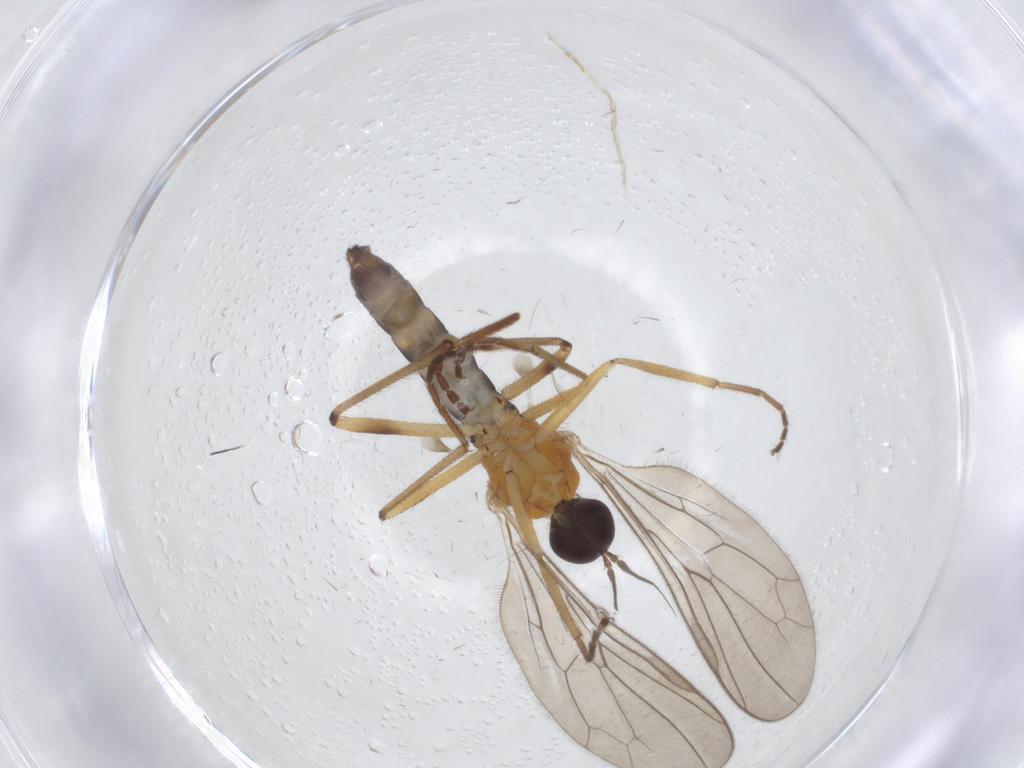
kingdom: Animalia
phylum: Arthropoda
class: Insecta
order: Diptera
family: Hybotidae
